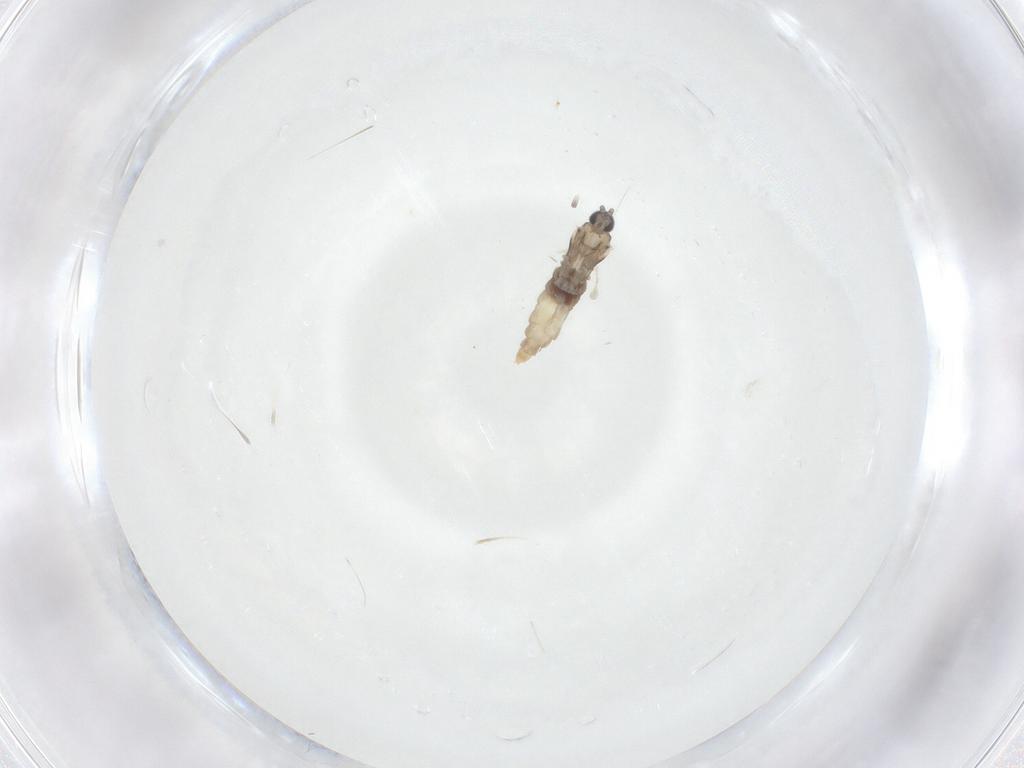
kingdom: Animalia
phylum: Arthropoda
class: Insecta
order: Diptera
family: Cecidomyiidae
